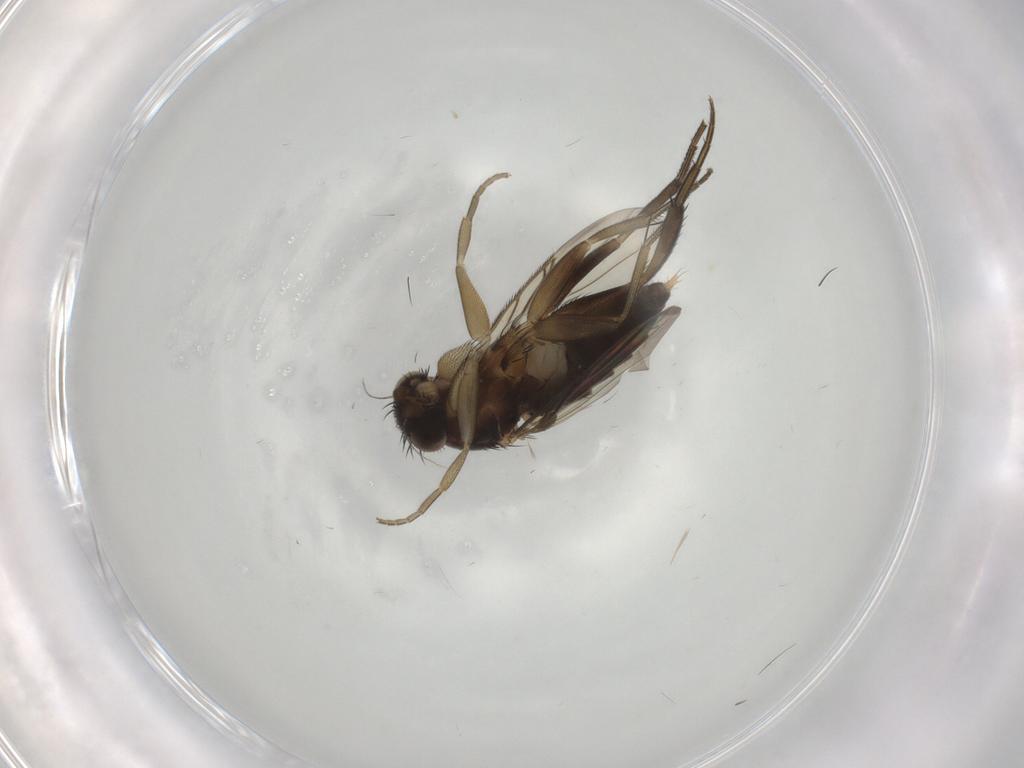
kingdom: Animalia
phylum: Arthropoda
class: Insecta
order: Diptera
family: Phoridae
